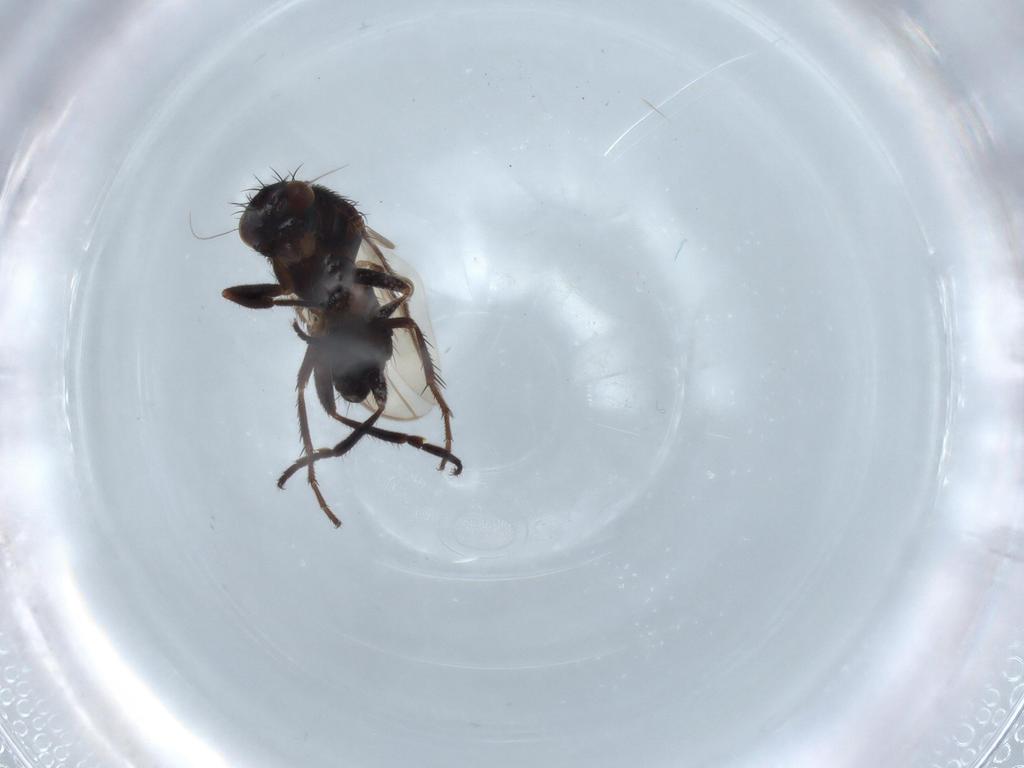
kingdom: Animalia
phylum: Arthropoda
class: Insecta
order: Diptera
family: Sphaeroceridae
